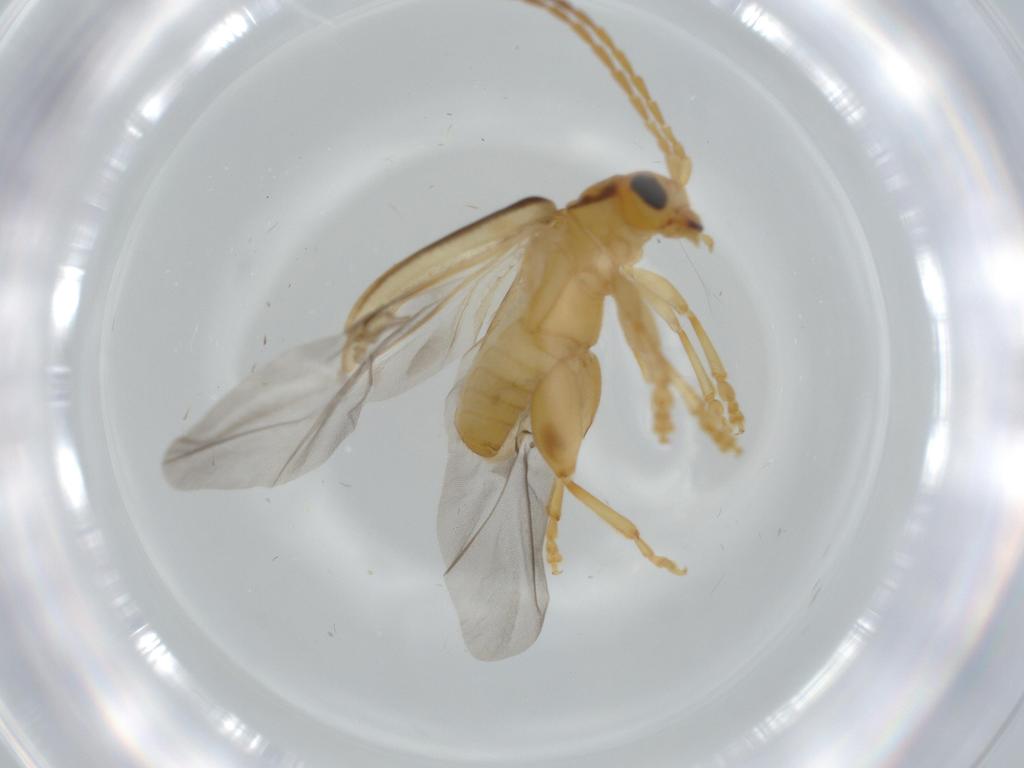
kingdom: Animalia
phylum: Arthropoda
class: Insecta
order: Coleoptera
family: Chrysomelidae
